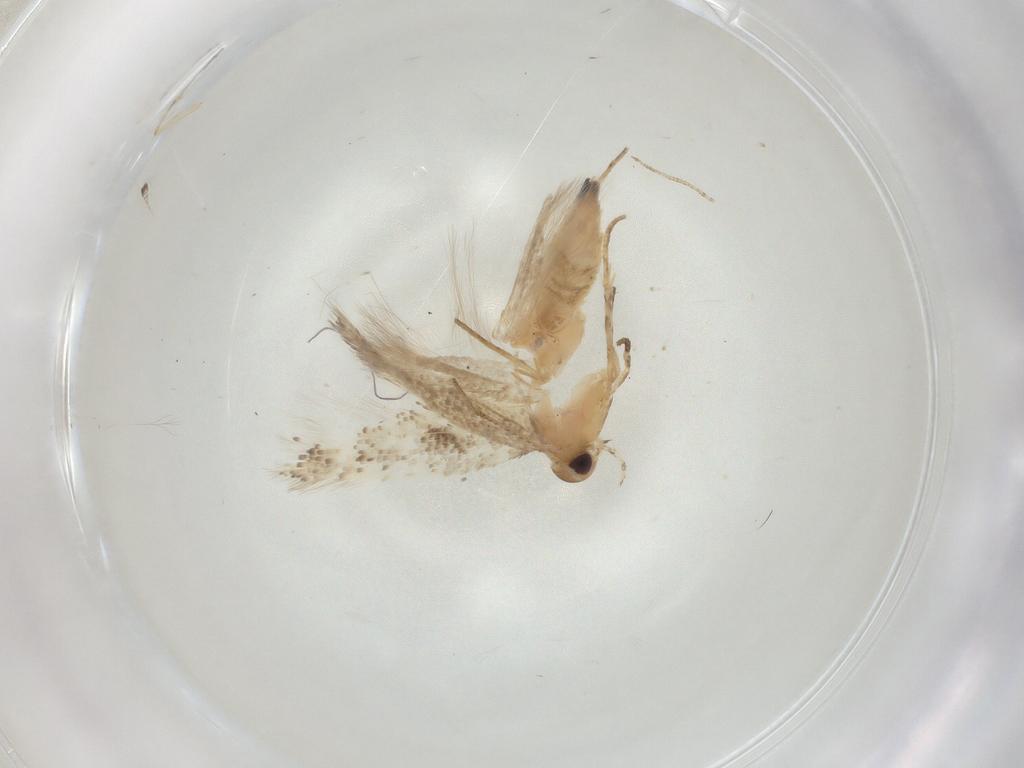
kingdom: Animalia
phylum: Arthropoda
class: Insecta
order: Lepidoptera
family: Gelechiidae
